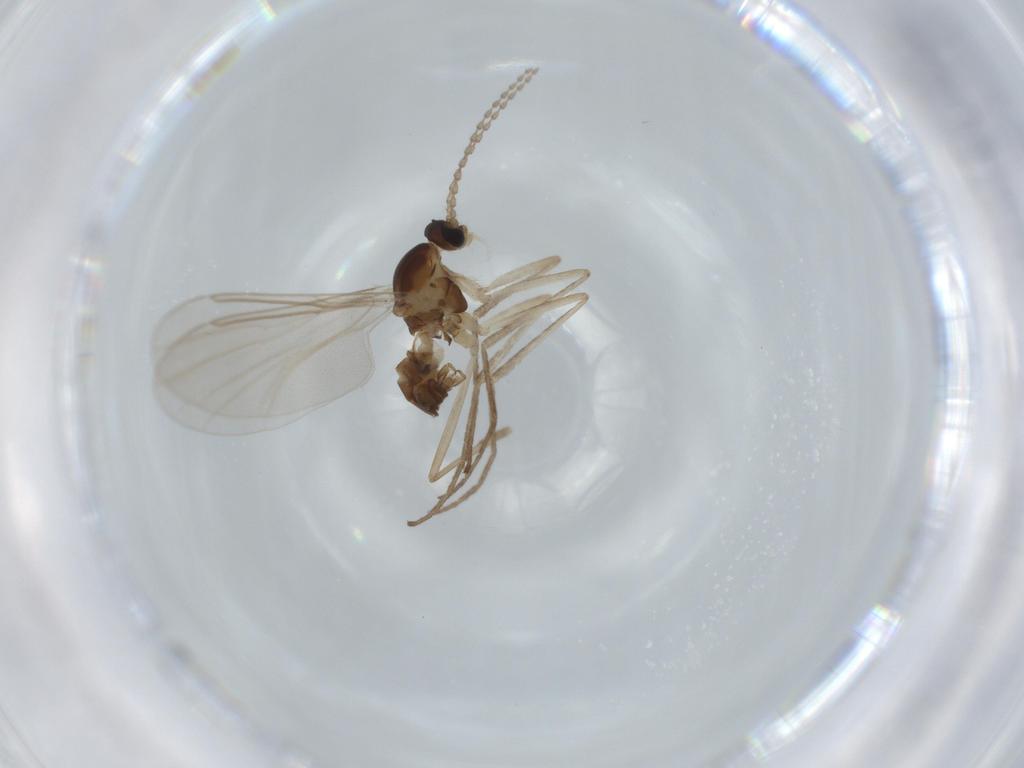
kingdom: Animalia
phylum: Arthropoda
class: Insecta
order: Diptera
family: Cecidomyiidae
